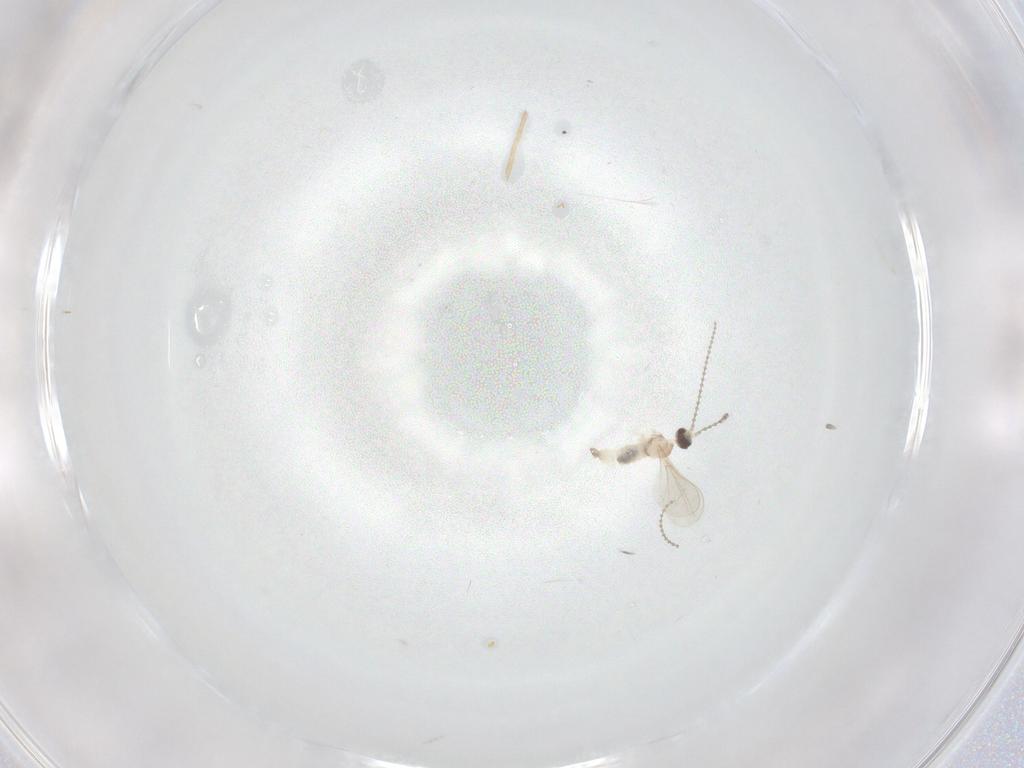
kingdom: Animalia
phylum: Arthropoda
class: Insecta
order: Diptera
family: Cecidomyiidae
